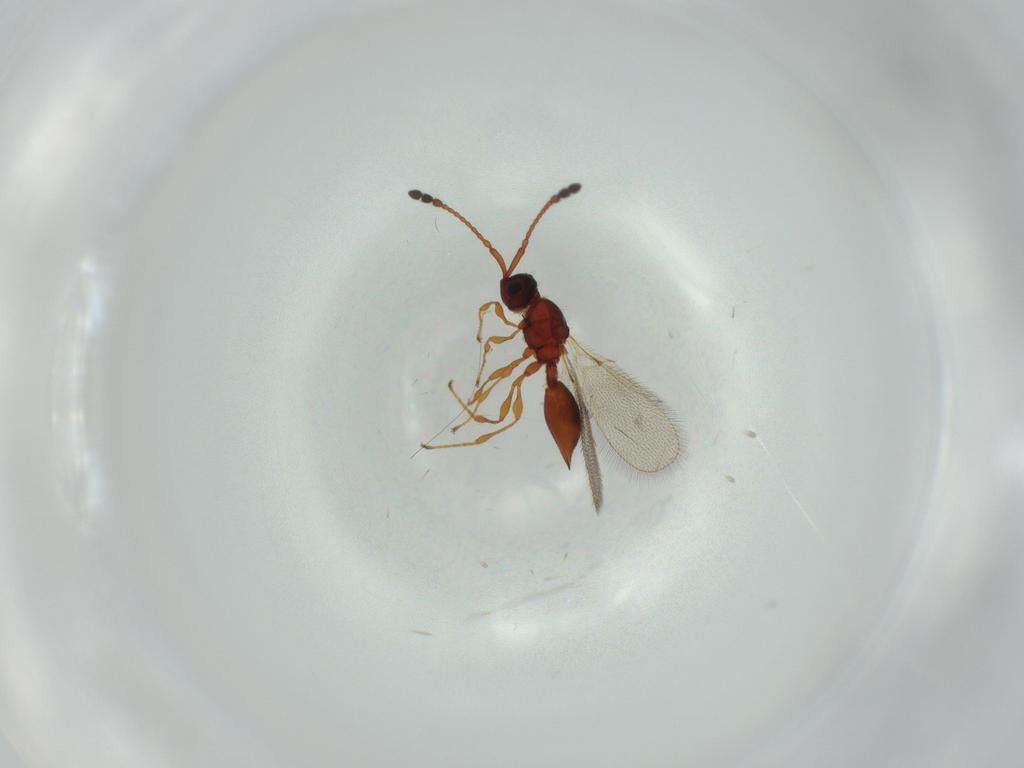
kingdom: Animalia
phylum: Arthropoda
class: Insecta
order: Hymenoptera
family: Diapriidae
